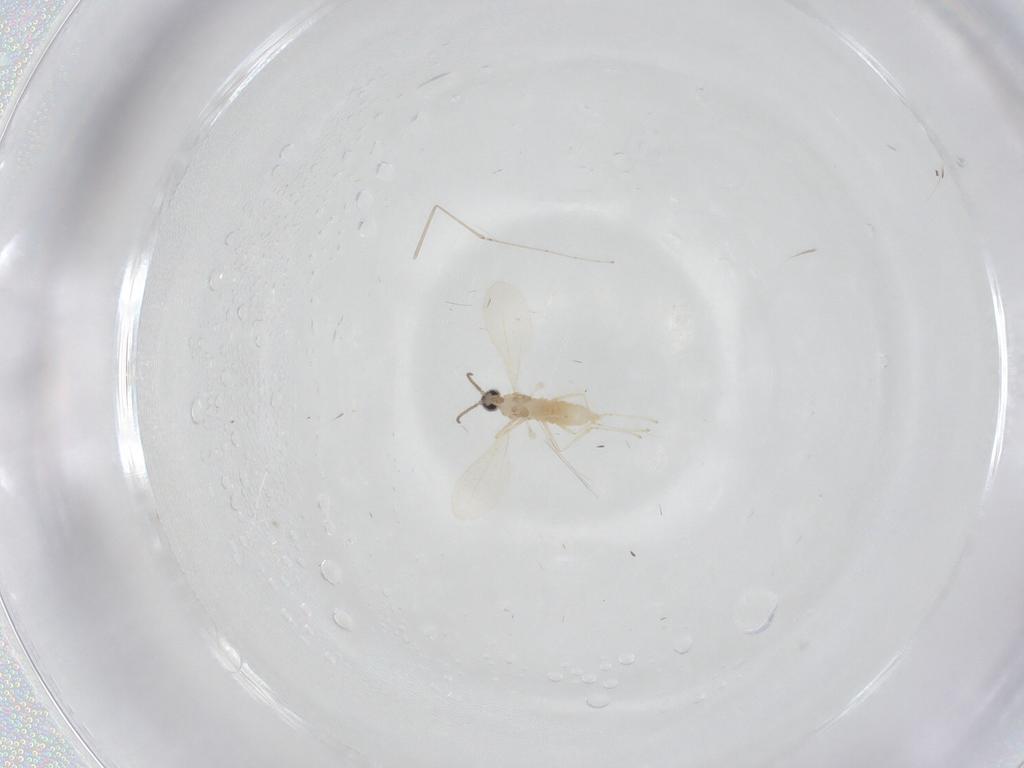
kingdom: Animalia
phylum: Arthropoda
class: Insecta
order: Diptera
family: Cecidomyiidae
